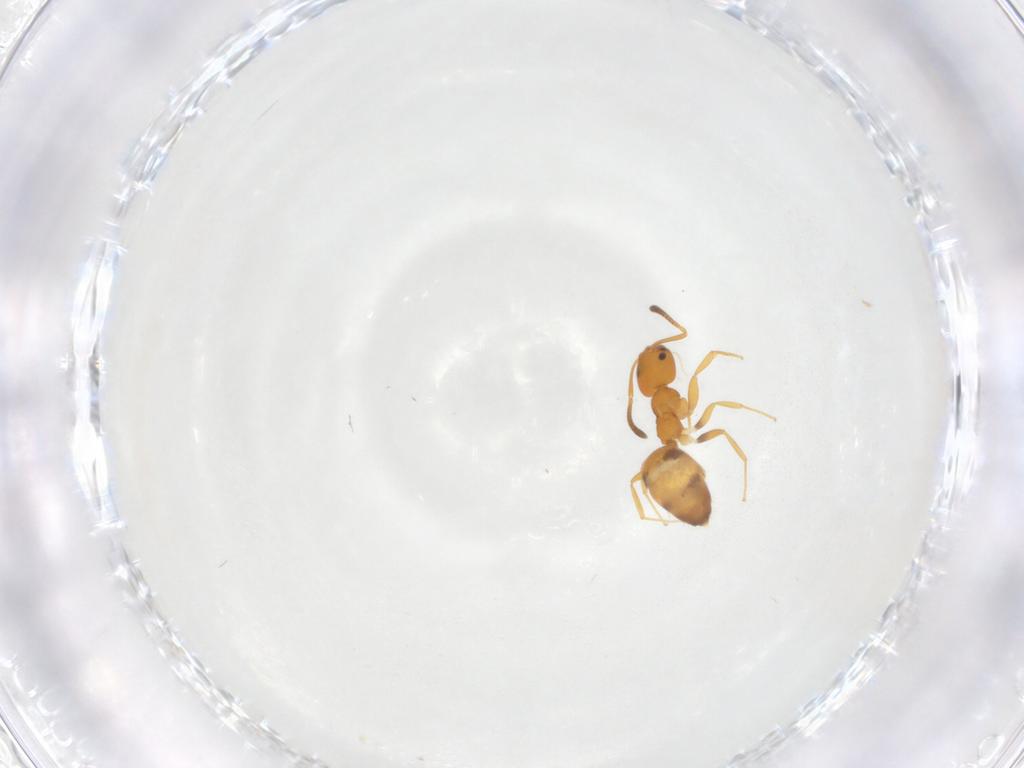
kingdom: Animalia
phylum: Arthropoda
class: Insecta
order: Hymenoptera
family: Formicidae
